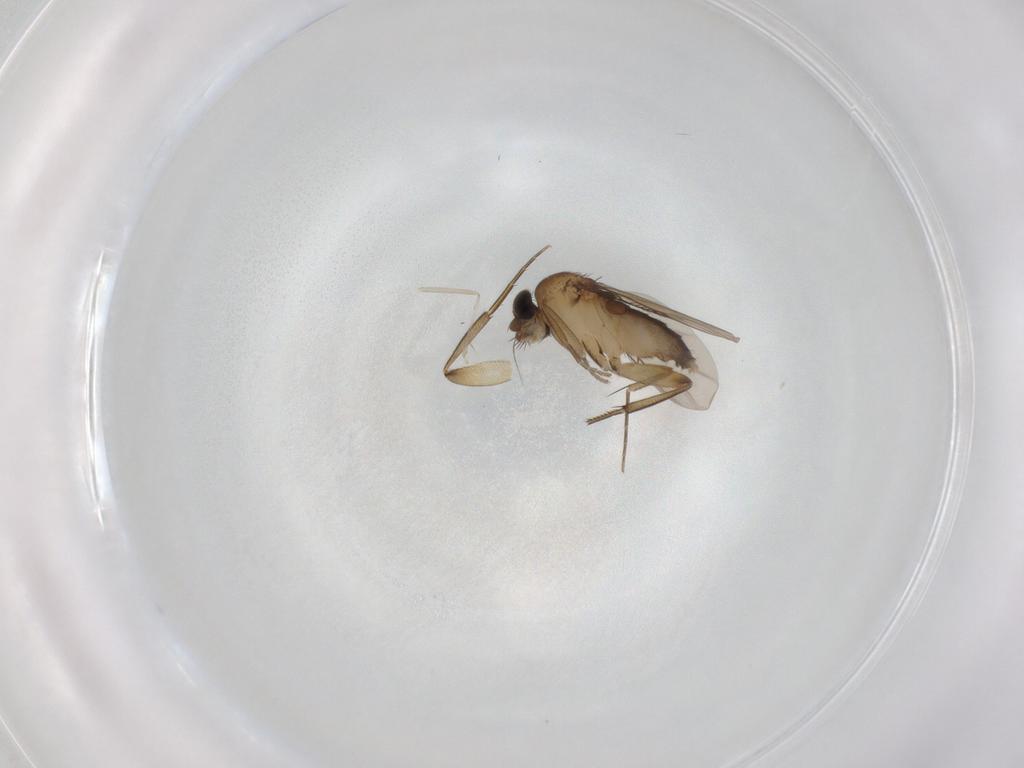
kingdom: Animalia
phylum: Arthropoda
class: Insecta
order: Diptera
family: Phoridae
